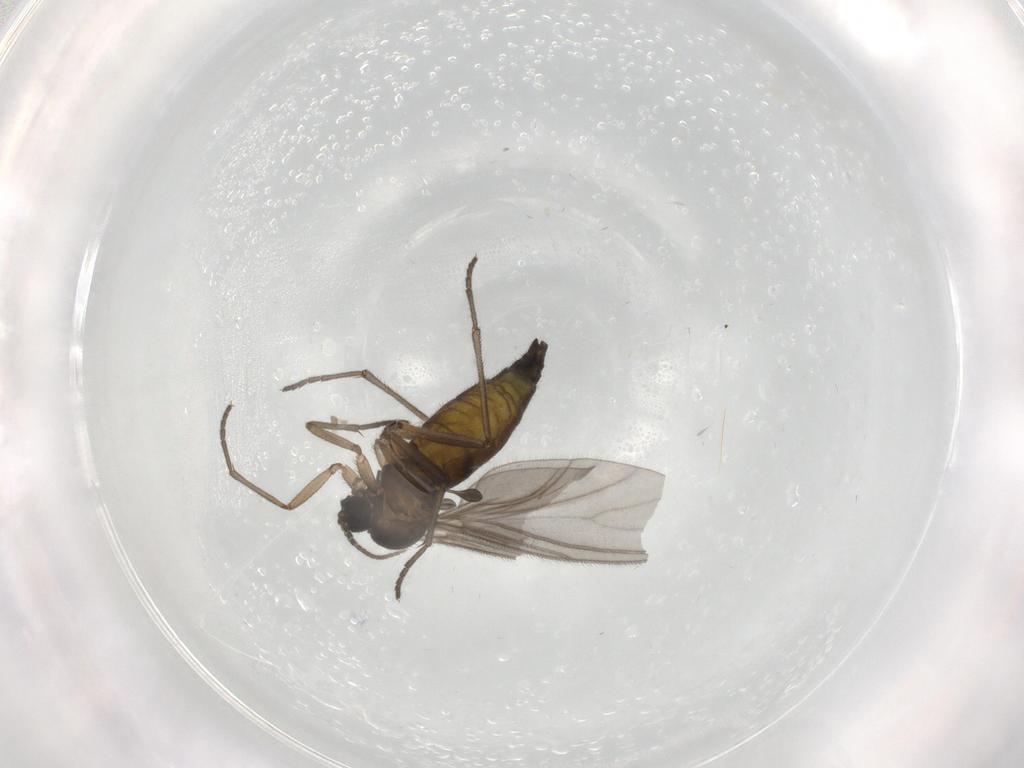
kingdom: Animalia
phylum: Arthropoda
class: Insecta
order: Diptera
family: Sciaridae
